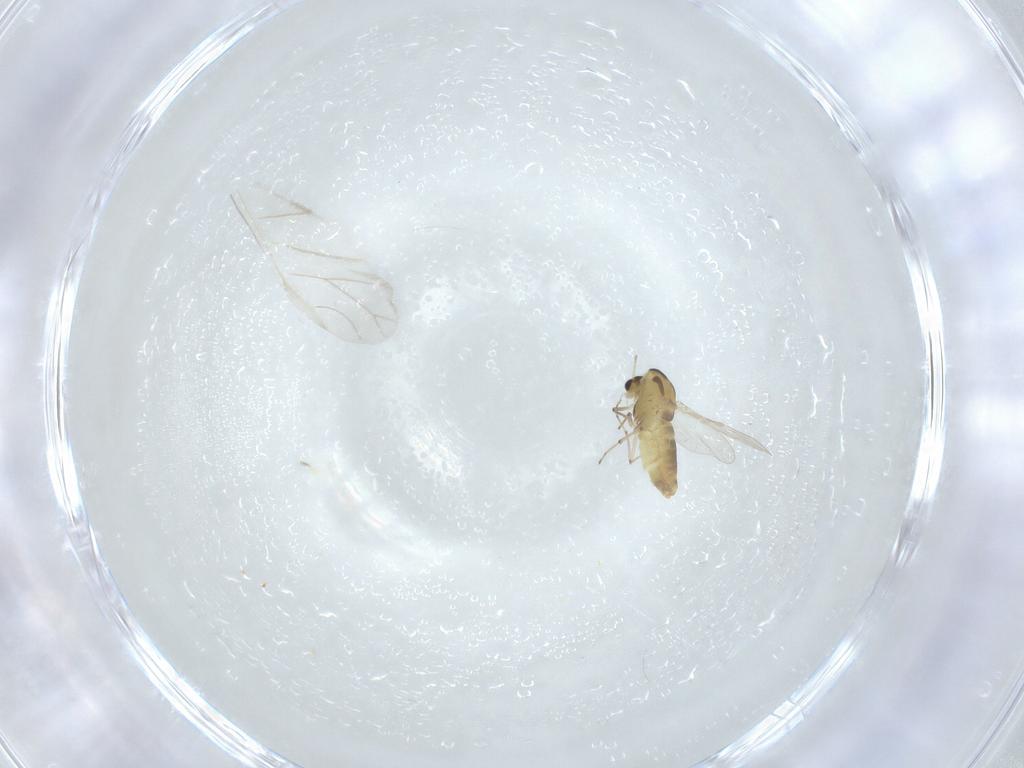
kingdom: Animalia
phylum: Arthropoda
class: Insecta
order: Diptera
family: Chironomidae
